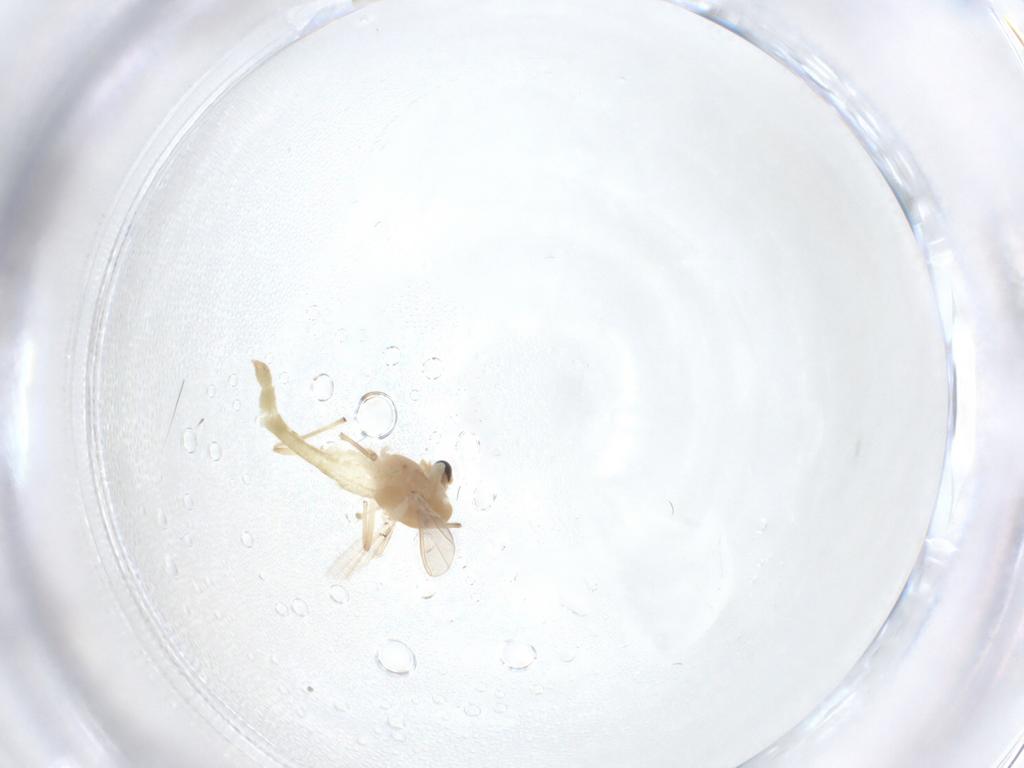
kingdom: Animalia
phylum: Arthropoda
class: Insecta
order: Diptera
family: Chironomidae
